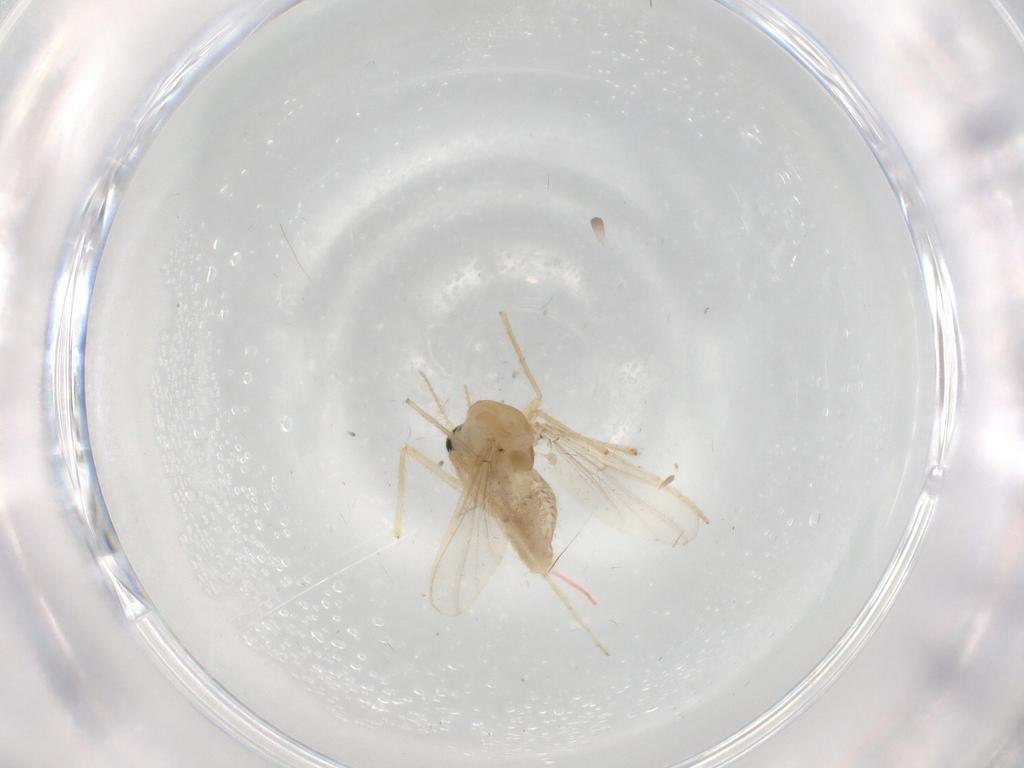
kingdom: Animalia
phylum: Arthropoda
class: Insecta
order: Diptera
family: Chironomidae
